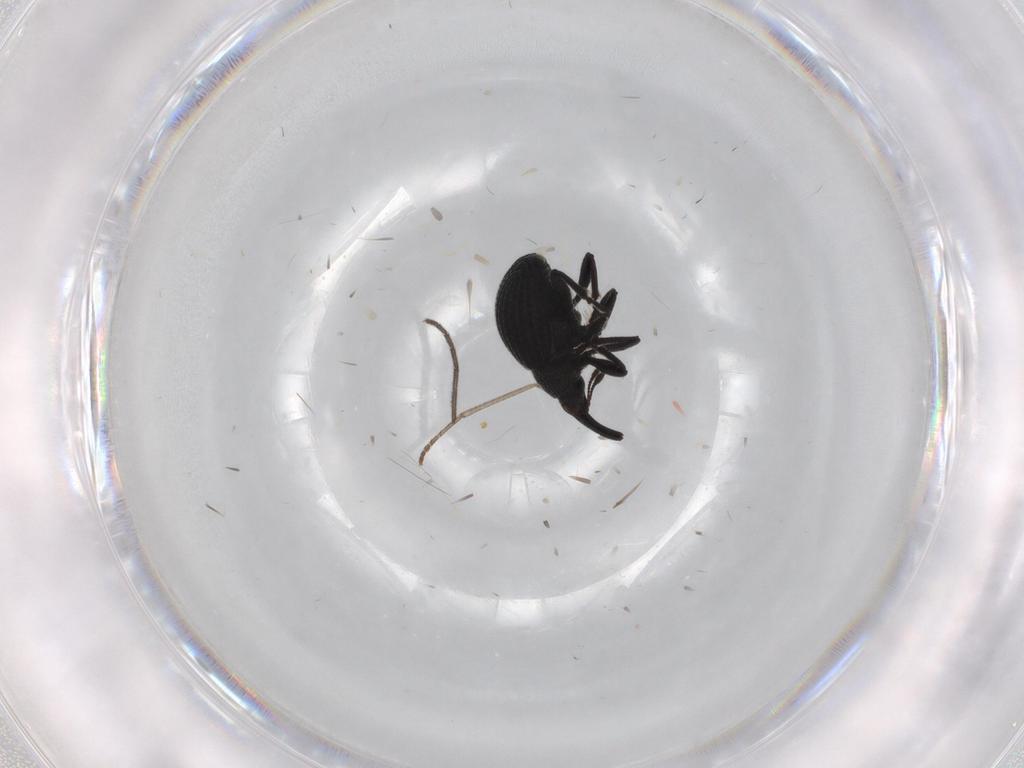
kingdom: Animalia
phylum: Arthropoda
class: Insecta
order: Coleoptera
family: Brentidae
